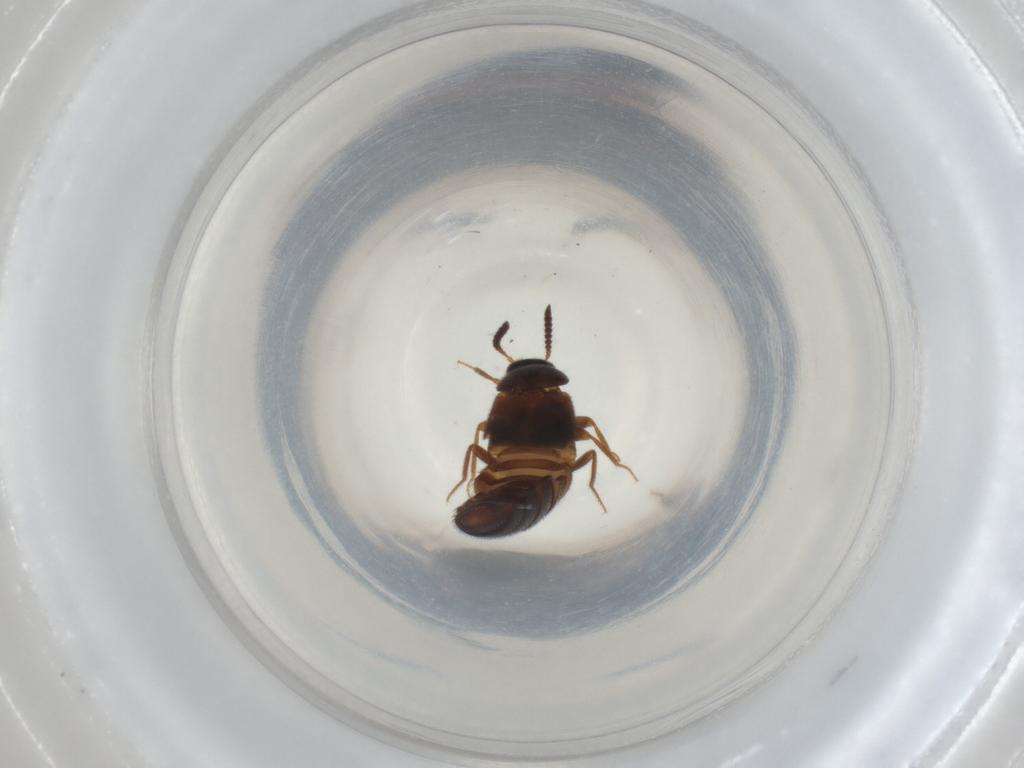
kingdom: Animalia
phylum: Arthropoda
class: Insecta
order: Coleoptera
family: Staphylinidae
